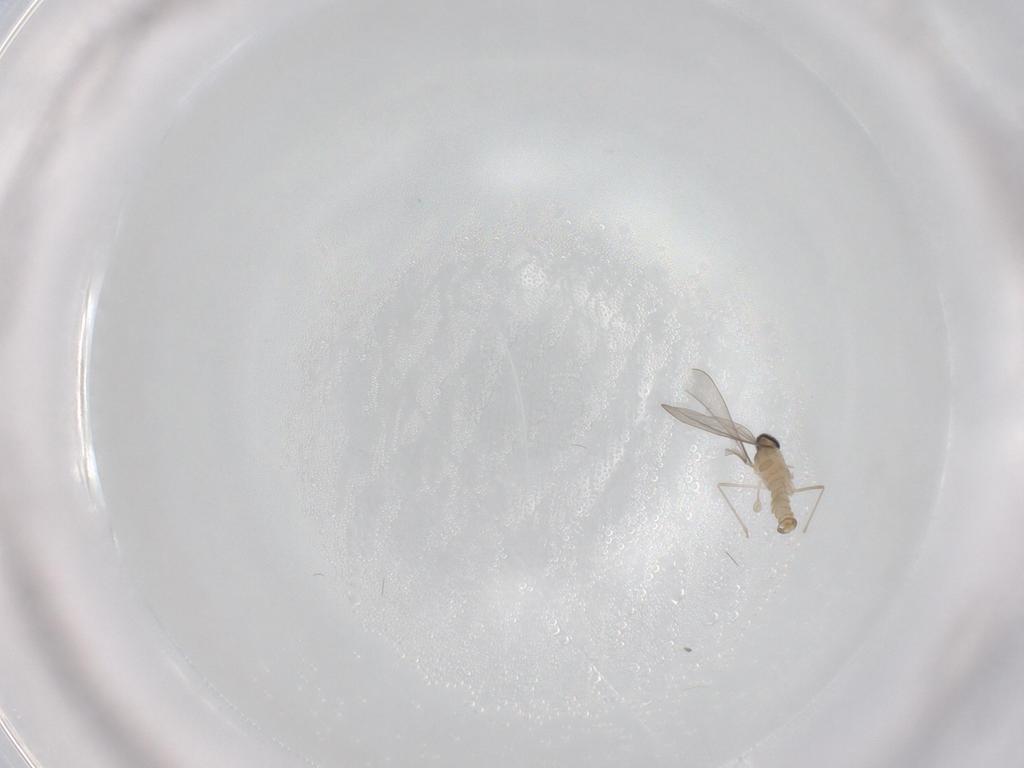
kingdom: Animalia
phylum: Arthropoda
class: Insecta
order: Diptera
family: Cecidomyiidae
